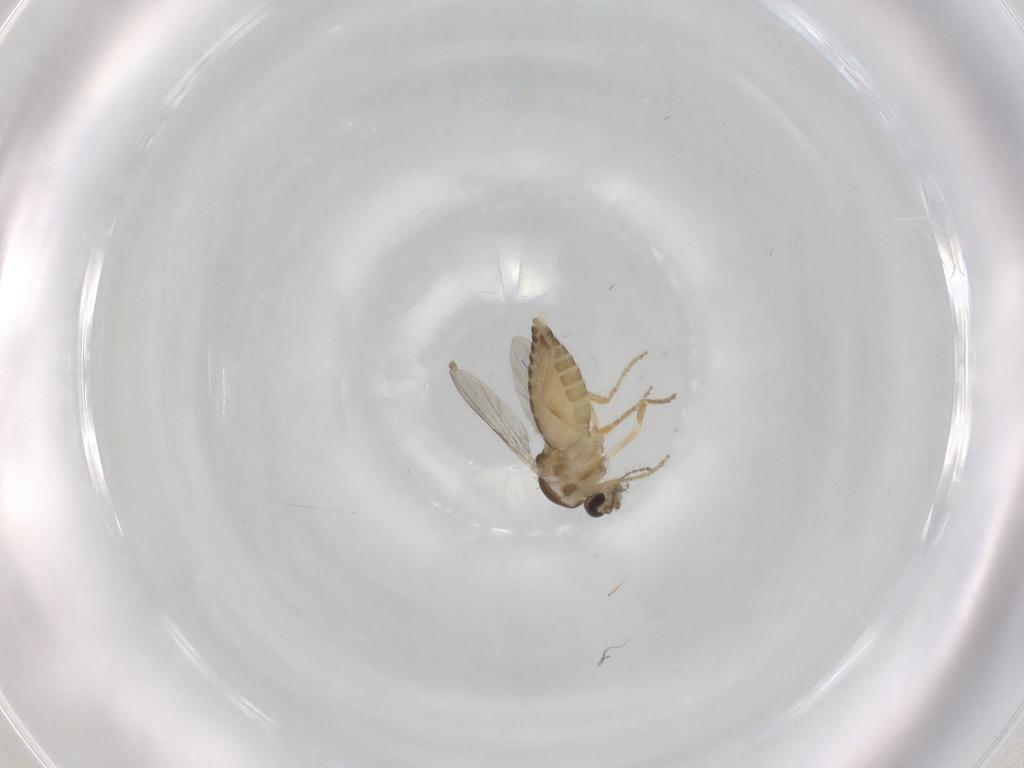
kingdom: Animalia
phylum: Arthropoda
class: Insecta
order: Diptera
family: Ceratopogonidae
